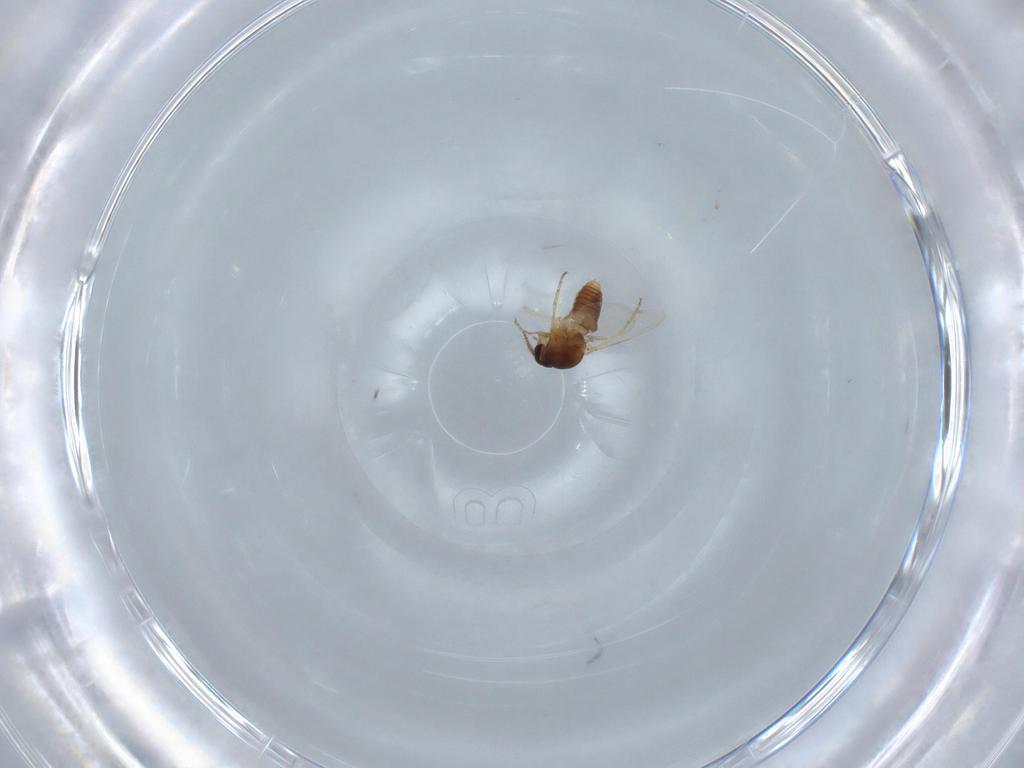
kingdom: Animalia
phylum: Arthropoda
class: Insecta
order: Diptera
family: Ceratopogonidae
